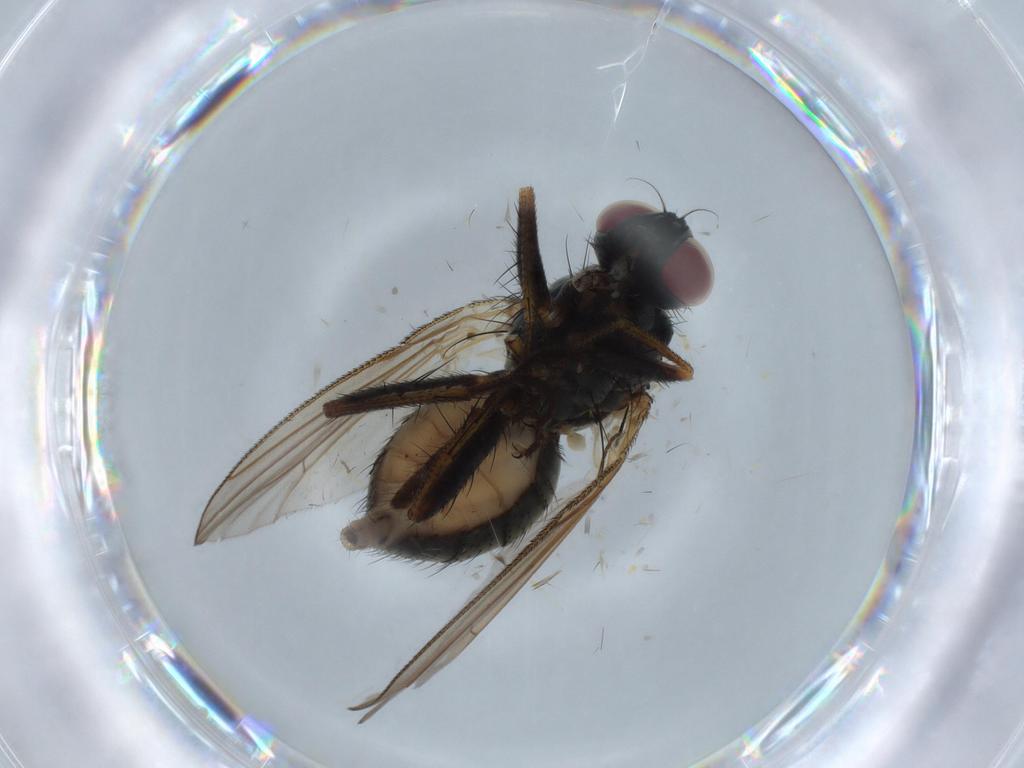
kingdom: Animalia
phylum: Arthropoda
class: Insecta
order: Diptera
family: Muscidae
